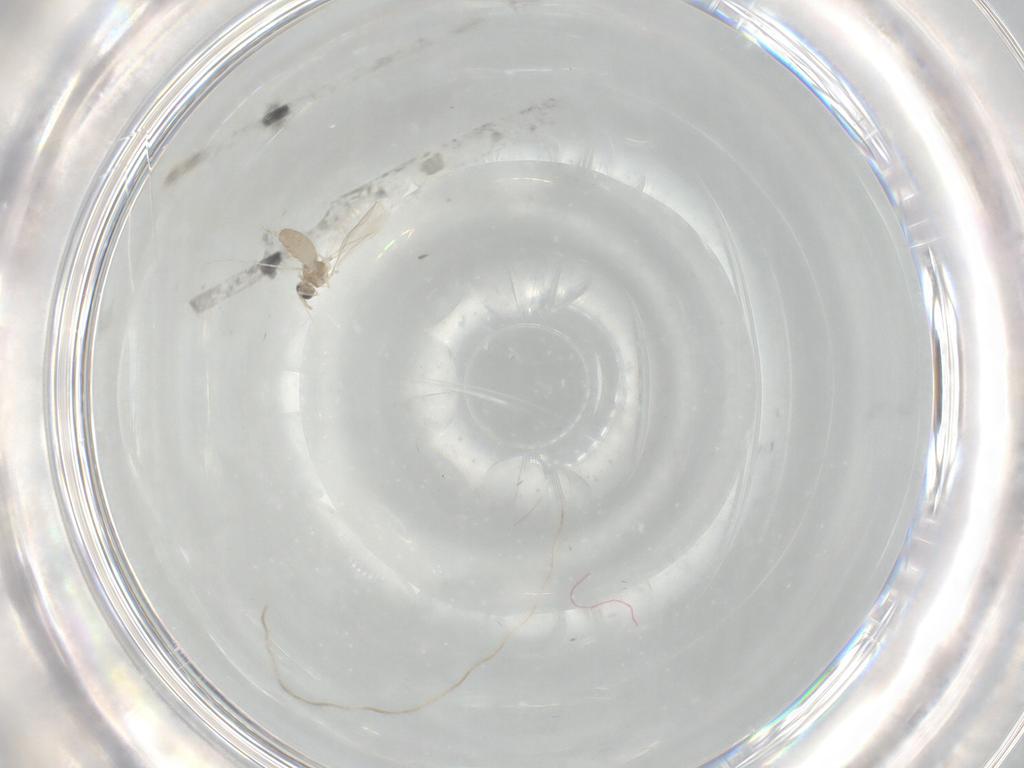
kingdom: Animalia
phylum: Arthropoda
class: Insecta
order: Diptera
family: Cecidomyiidae
